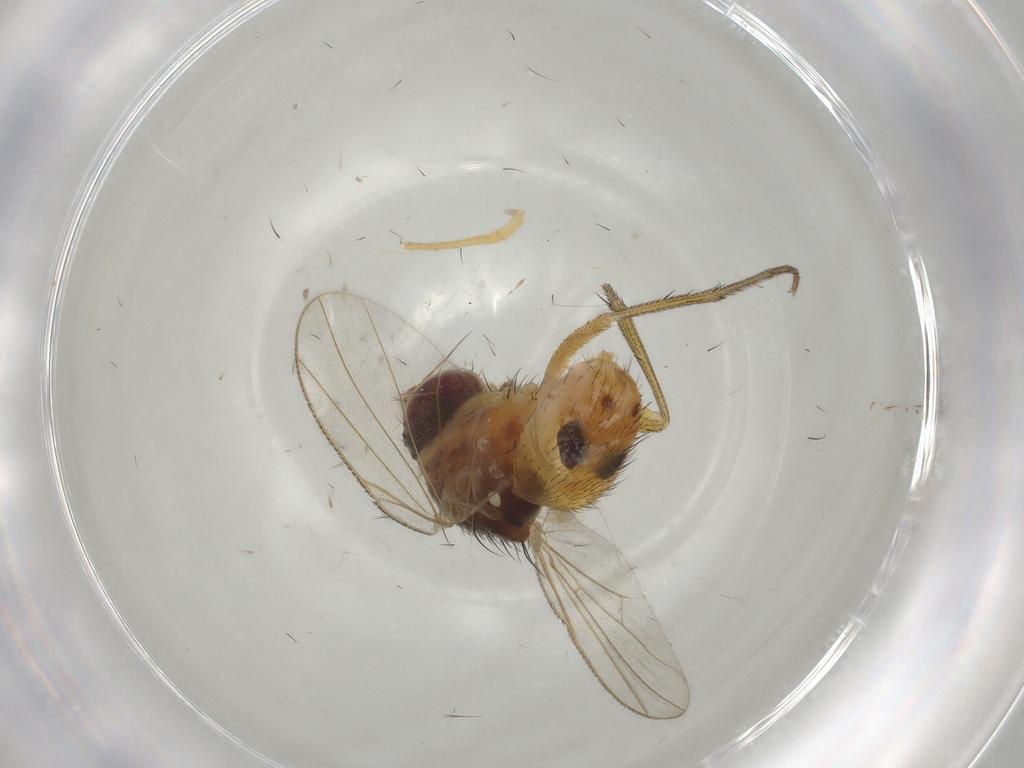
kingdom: Animalia
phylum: Arthropoda
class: Insecta
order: Diptera
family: Muscidae
